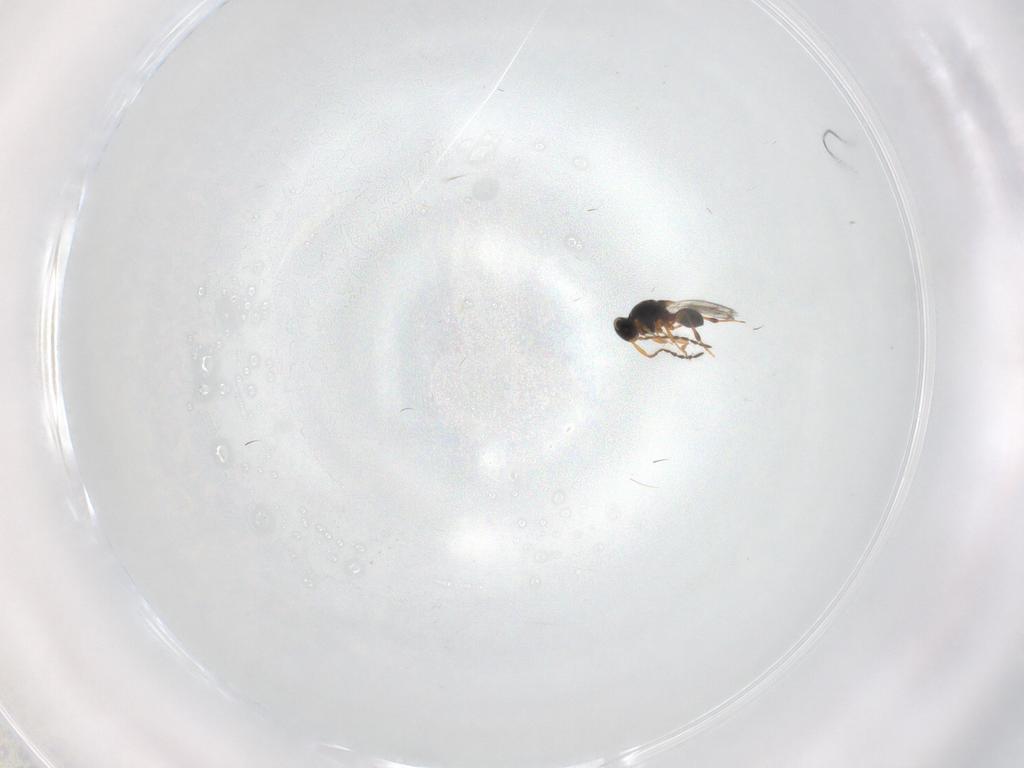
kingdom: Animalia
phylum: Arthropoda
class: Insecta
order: Hymenoptera
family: Platygastridae
